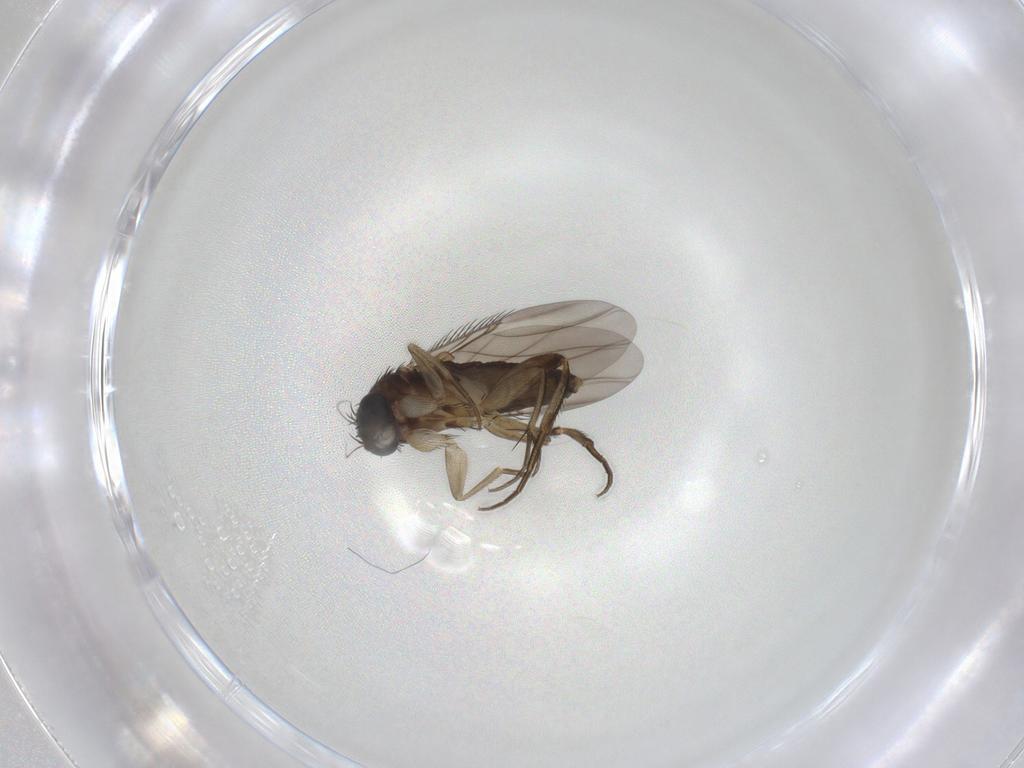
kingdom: Animalia
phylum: Arthropoda
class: Insecta
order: Diptera
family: Phoridae
